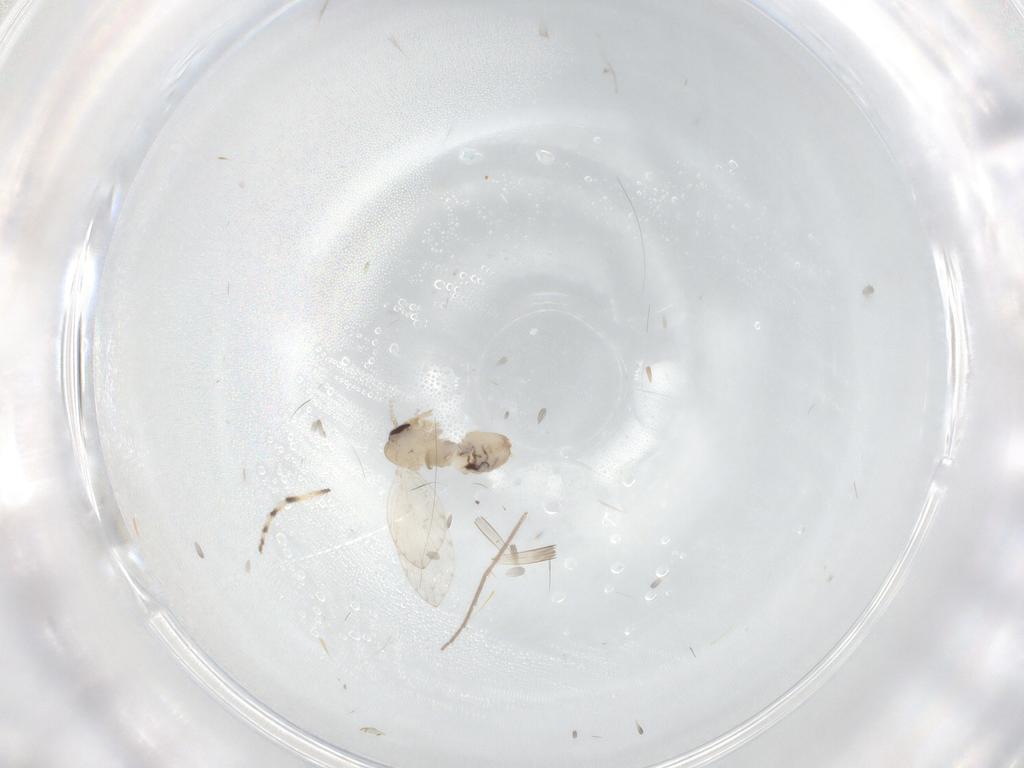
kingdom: Animalia
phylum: Arthropoda
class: Insecta
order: Diptera
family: Psychodidae
